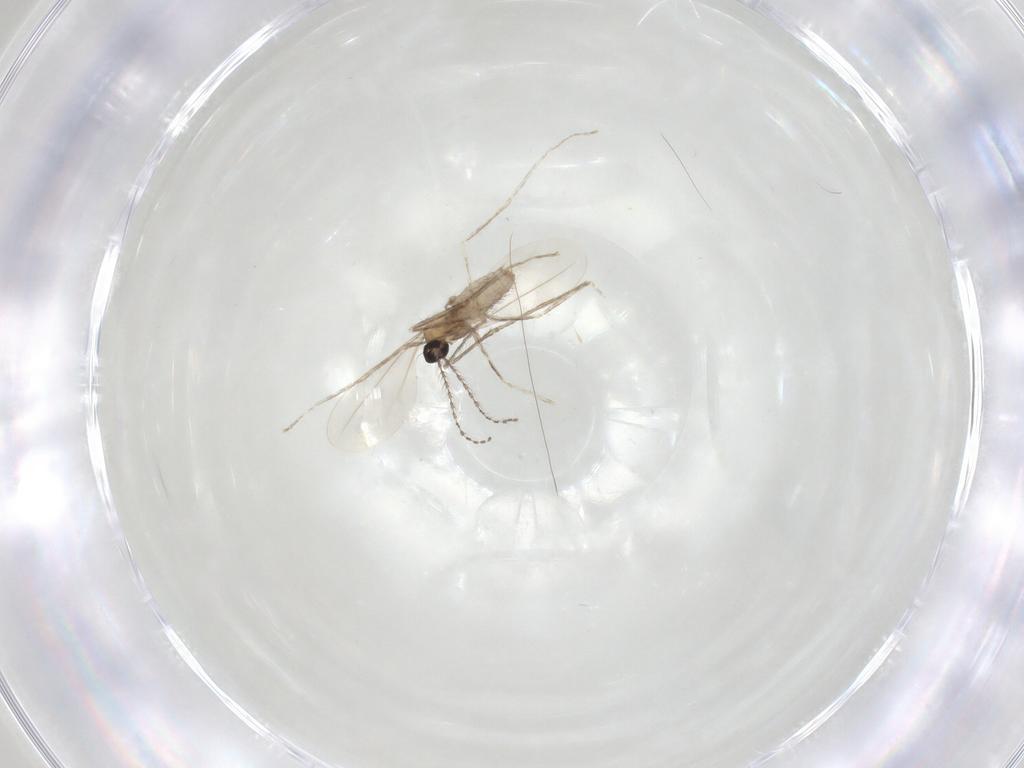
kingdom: Animalia
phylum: Arthropoda
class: Insecta
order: Diptera
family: Cecidomyiidae
